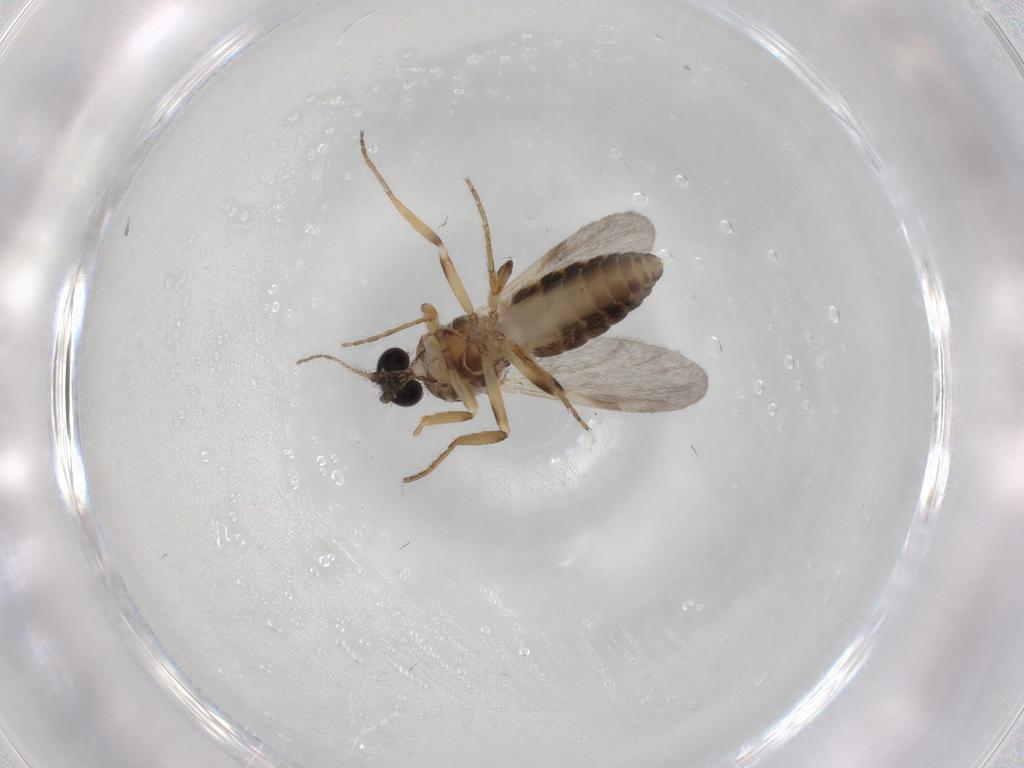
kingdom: Animalia
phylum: Arthropoda
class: Insecta
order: Diptera
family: Ceratopogonidae
